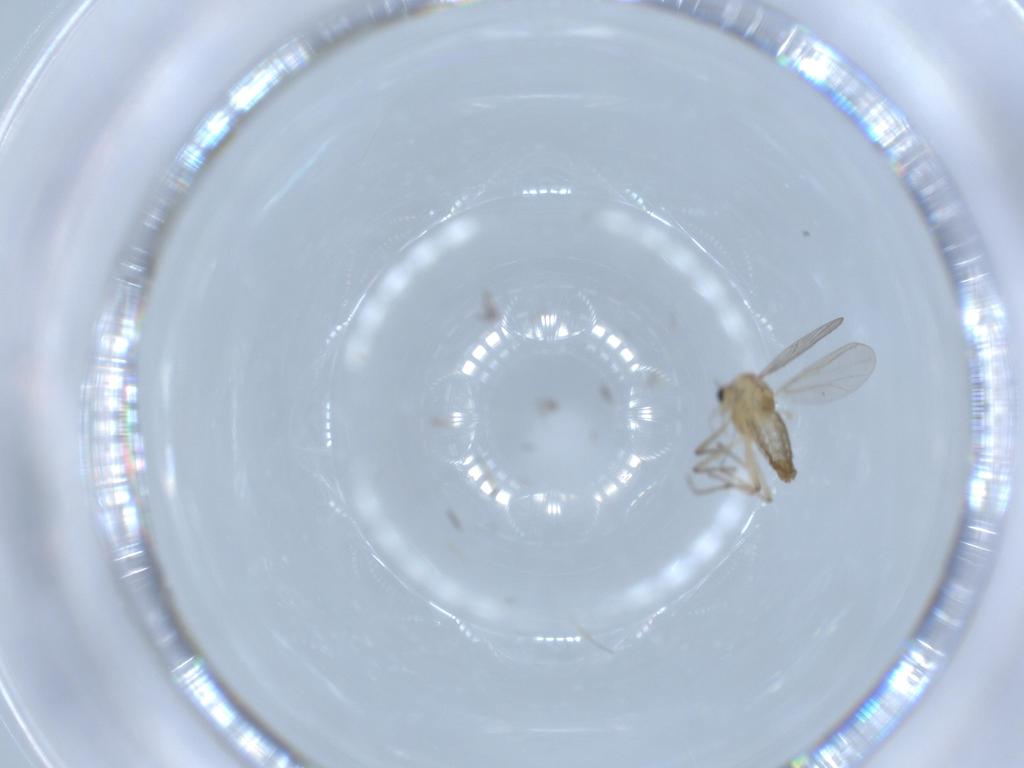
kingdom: Animalia
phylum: Arthropoda
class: Insecta
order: Diptera
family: Chironomidae
